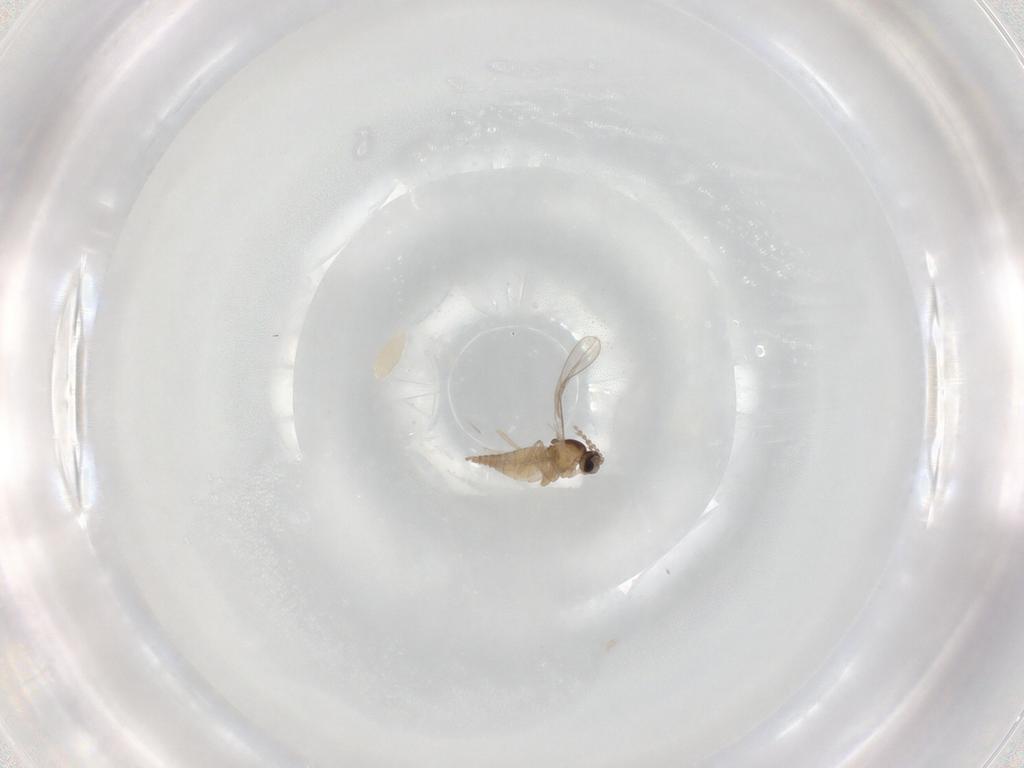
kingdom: Animalia
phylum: Arthropoda
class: Insecta
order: Diptera
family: Cecidomyiidae
